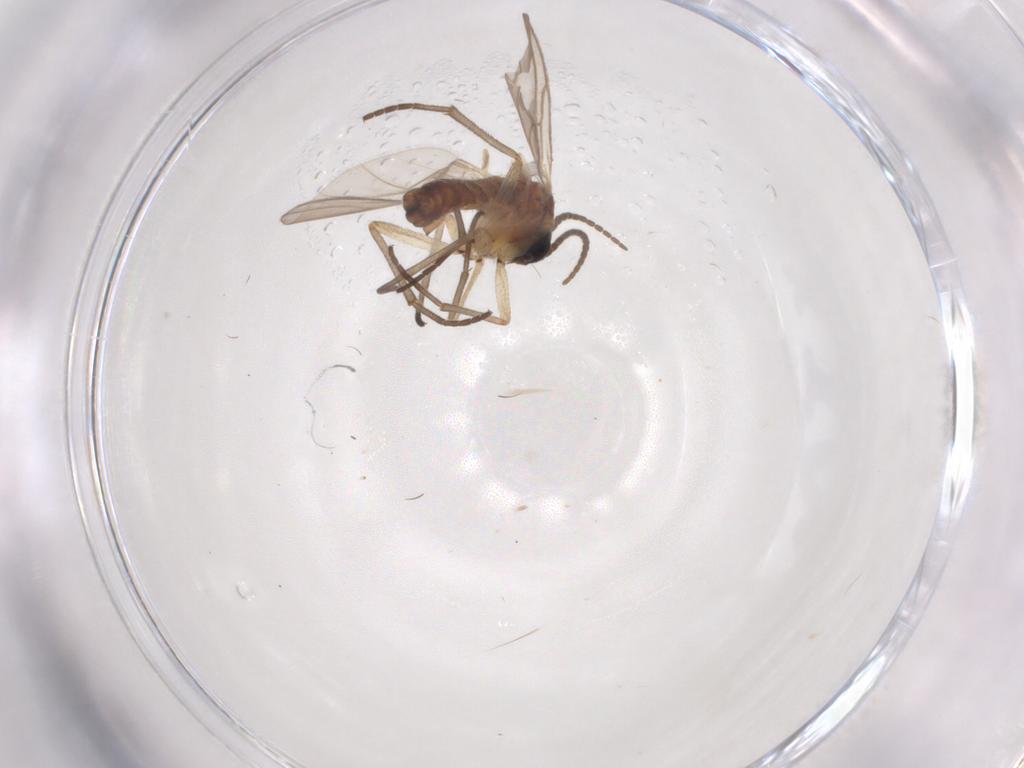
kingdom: Animalia
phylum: Arthropoda
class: Insecta
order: Diptera
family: Sciaridae
